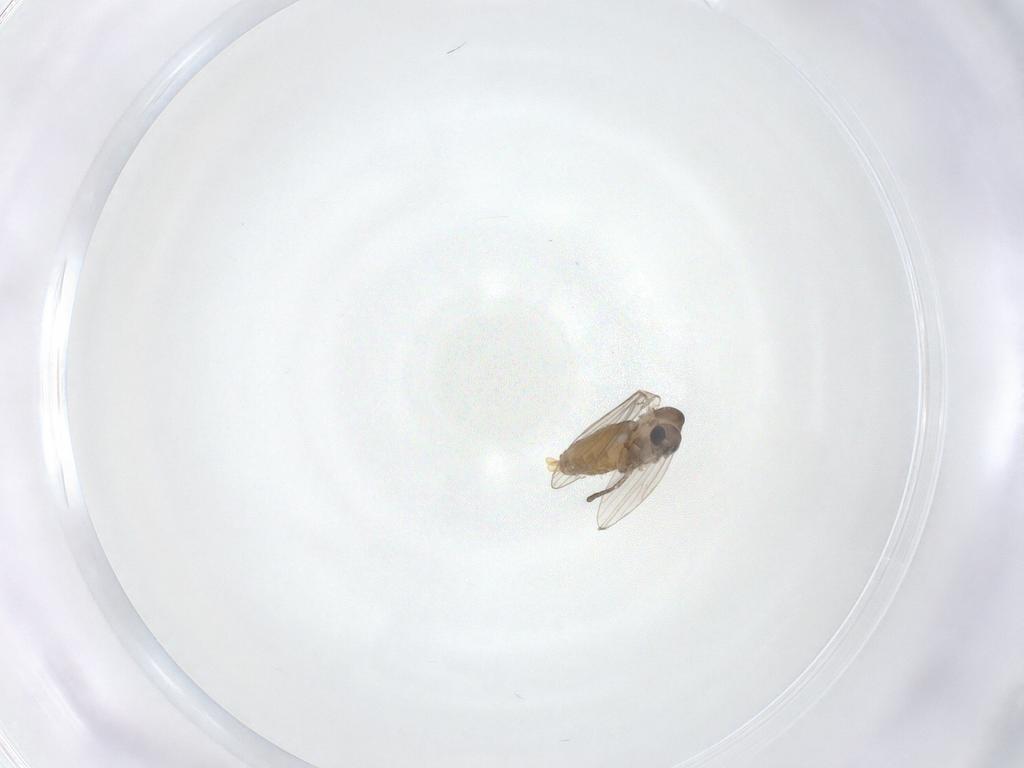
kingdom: Animalia
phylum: Arthropoda
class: Insecta
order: Diptera
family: Psychodidae
